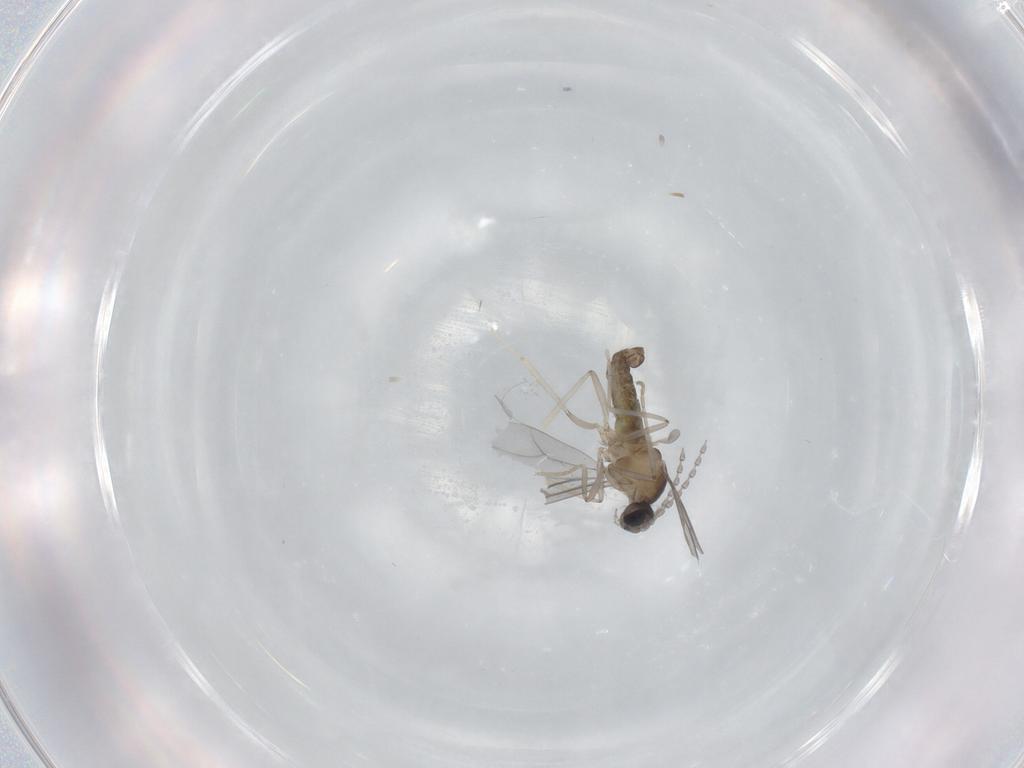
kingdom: Animalia
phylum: Arthropoda
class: Insecta
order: Diptera
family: Cecidomyiidae
